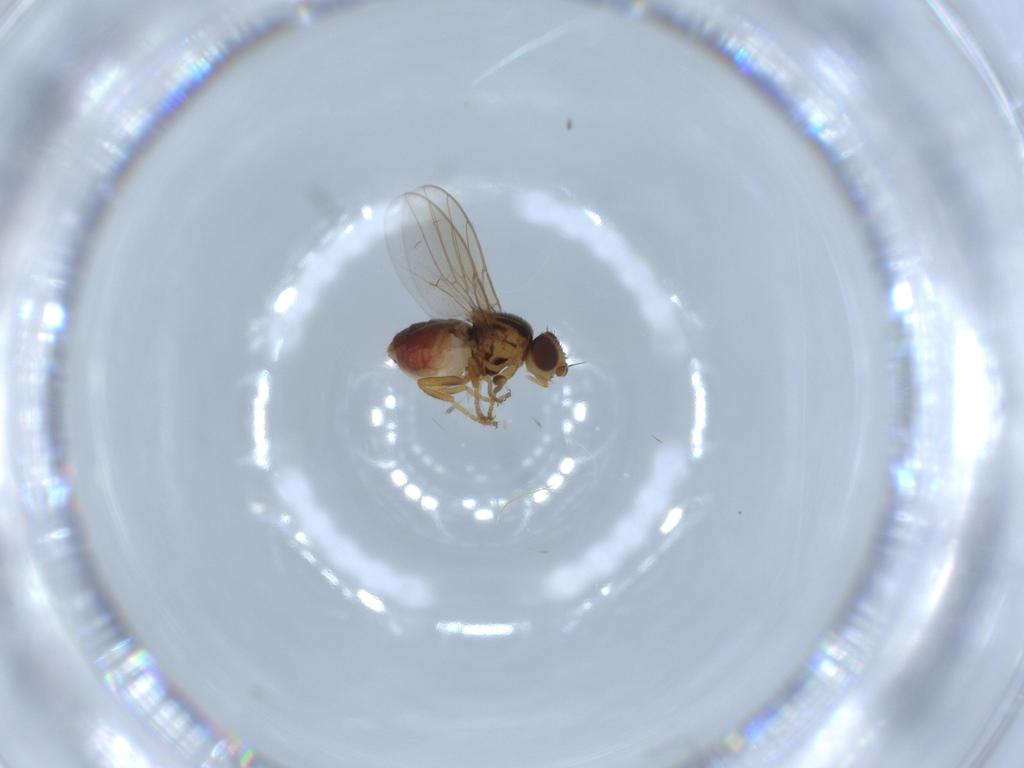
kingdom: Animalia
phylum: Arthropoda
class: Insecta
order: Diptera
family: Chloropidae
